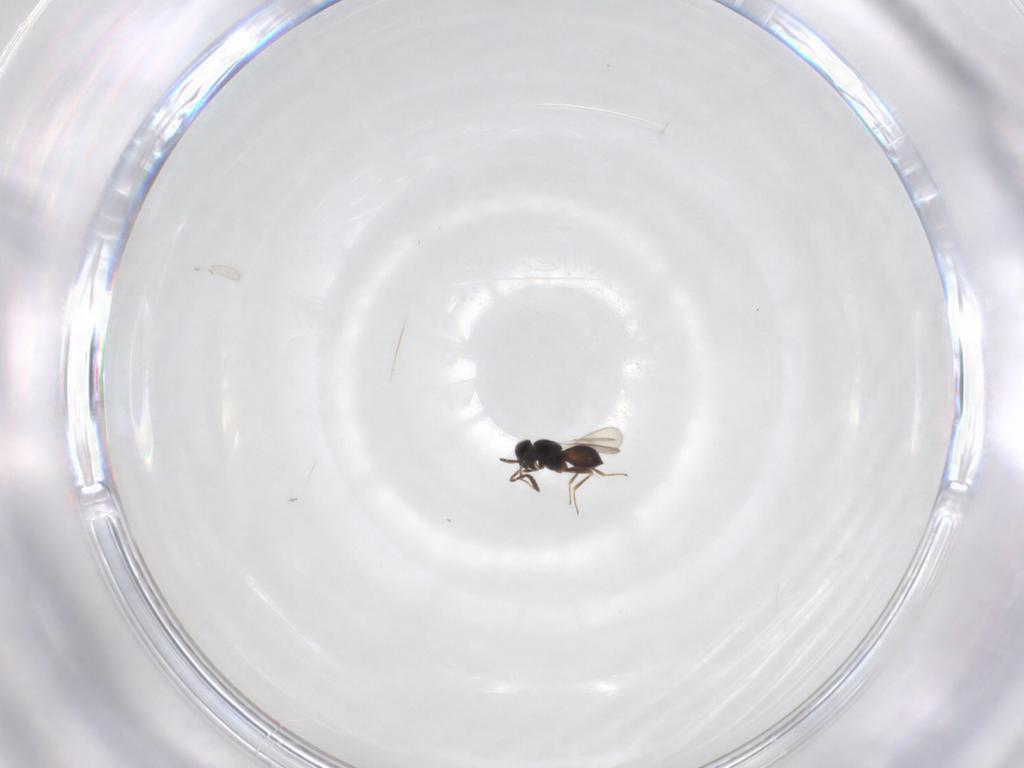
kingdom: Animalia
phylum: Arthropoda
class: Insecta
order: Hymenoptera
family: Scelionidae
